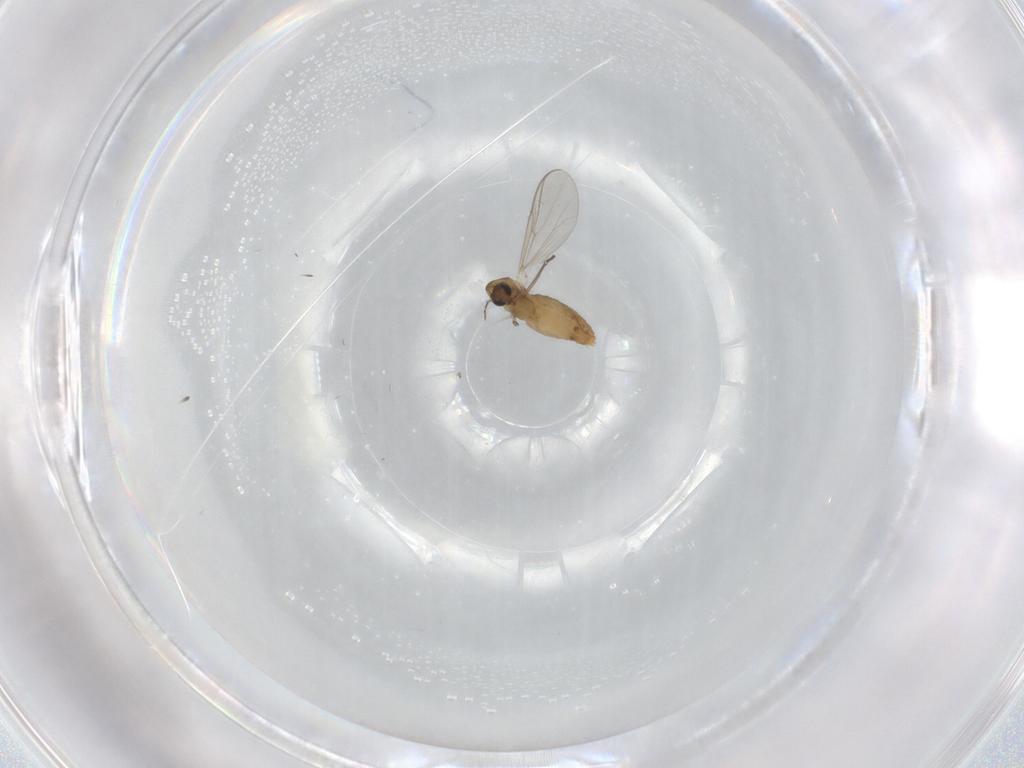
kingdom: Animalia
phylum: Arthropoda
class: Insecta
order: Diptera
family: Chironomidae
